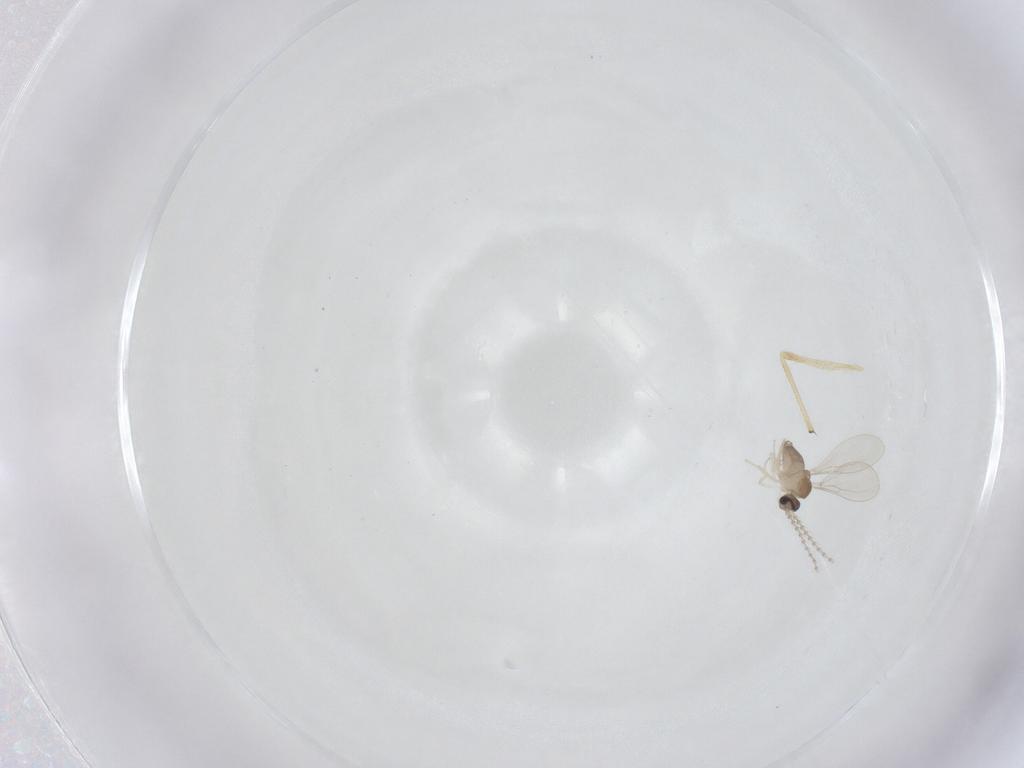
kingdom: Animalia
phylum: Arthropoda
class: Insecta
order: Diptera
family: Cecidomyiidae
